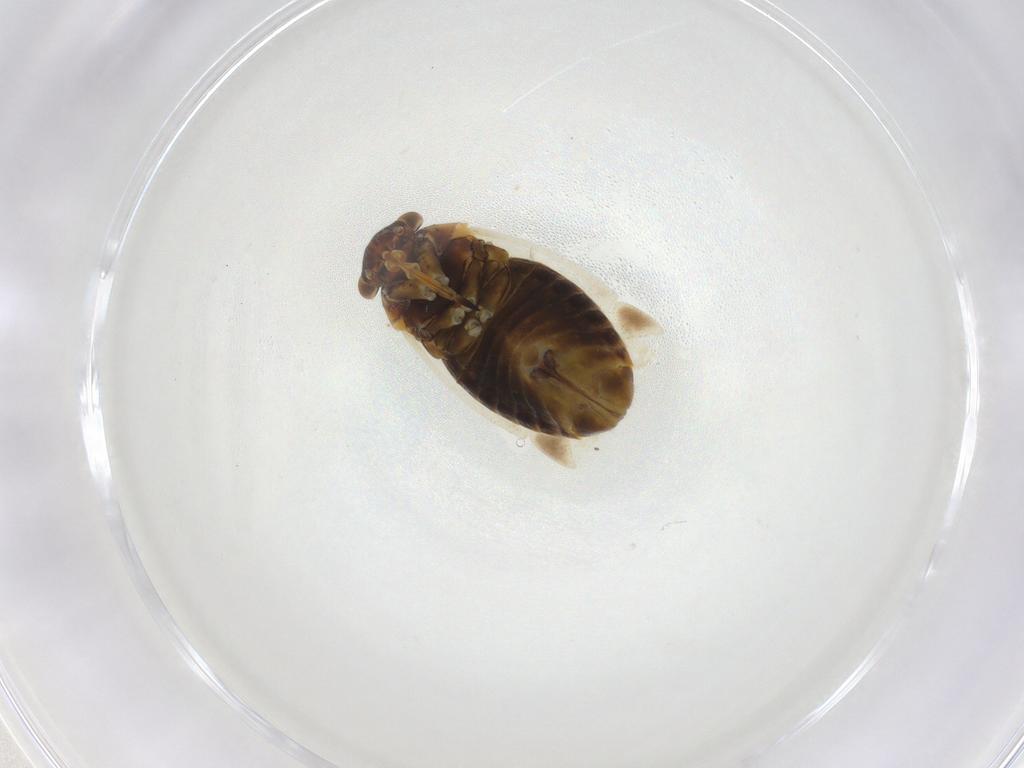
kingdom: Animalia
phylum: Arthropoda
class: Insecta
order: Hemiptera
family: Miridae
